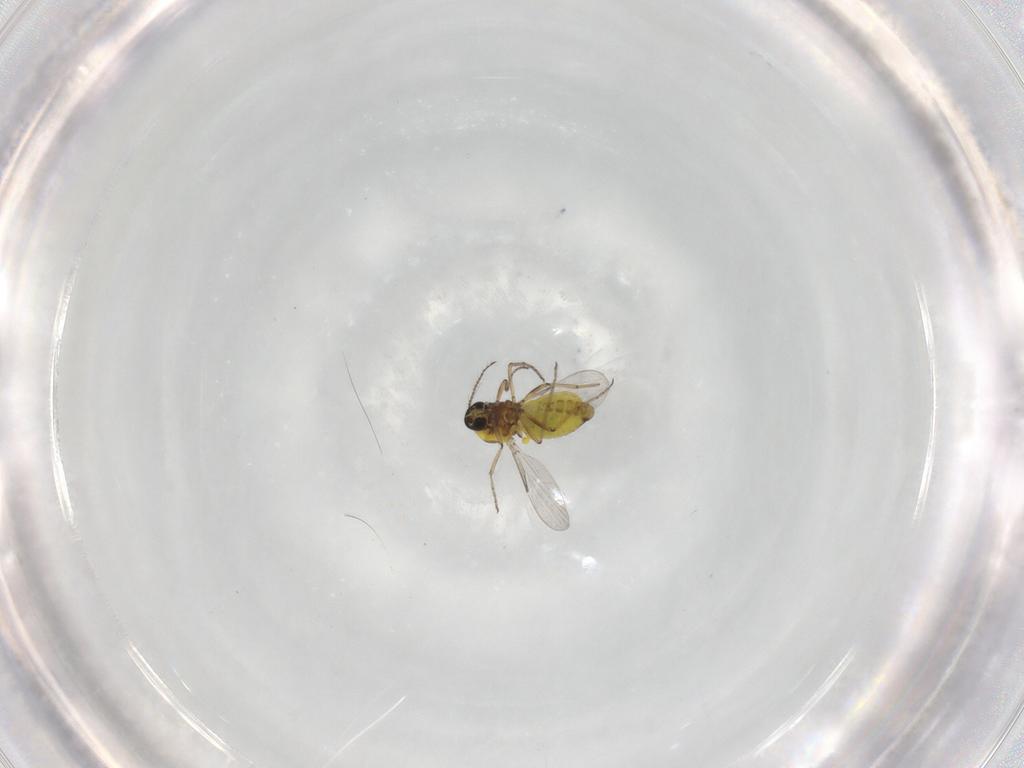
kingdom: Animalia
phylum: Arthropoda
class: Insecta
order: Diptera
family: Ceratopogonidae
